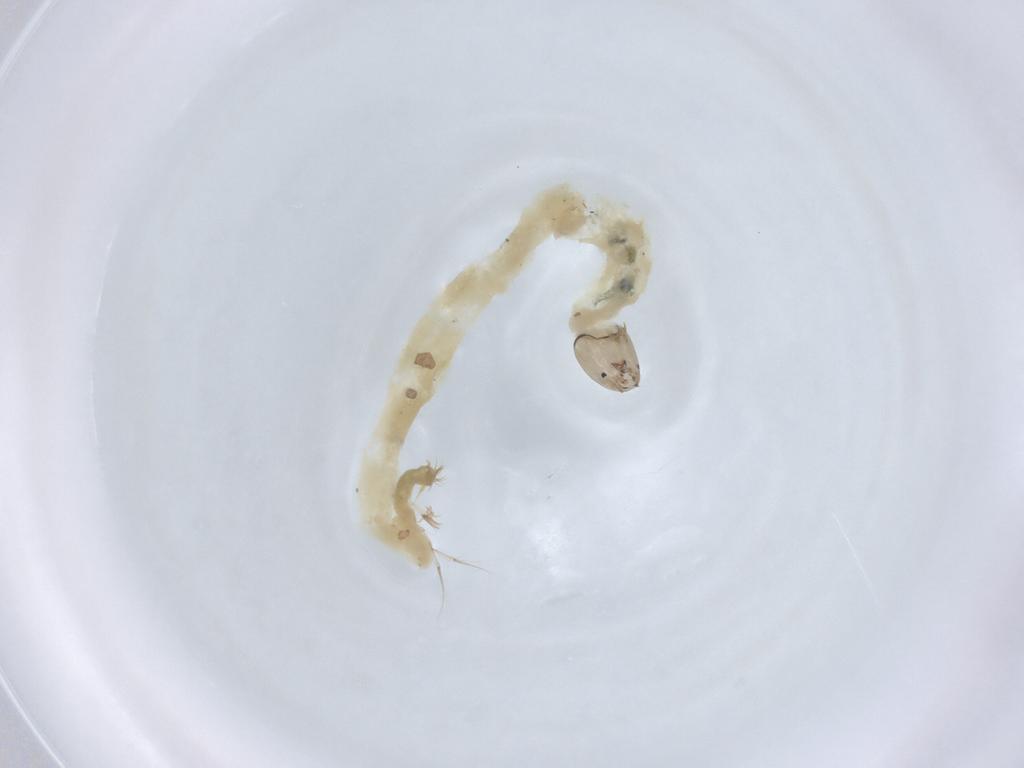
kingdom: Animalia
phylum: Arthropoda
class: Insecta
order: Diptera
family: Chironomidae
